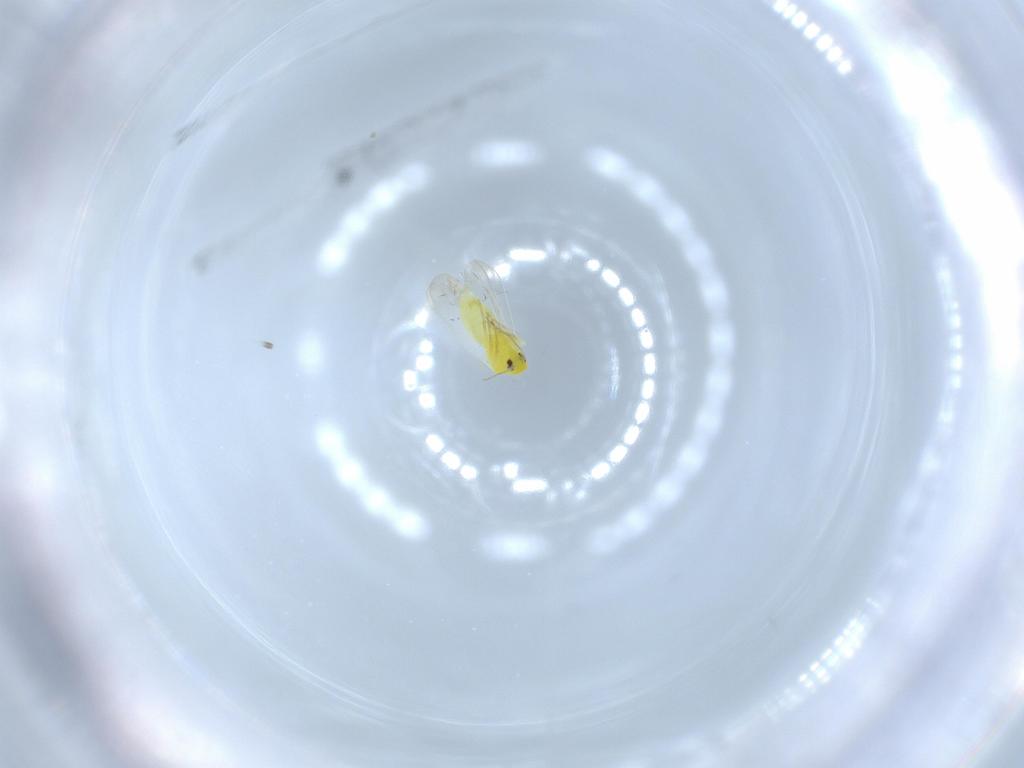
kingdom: Animalia
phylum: Arthropoda
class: Insecta
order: Hemiptera
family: Aleyrodidae
